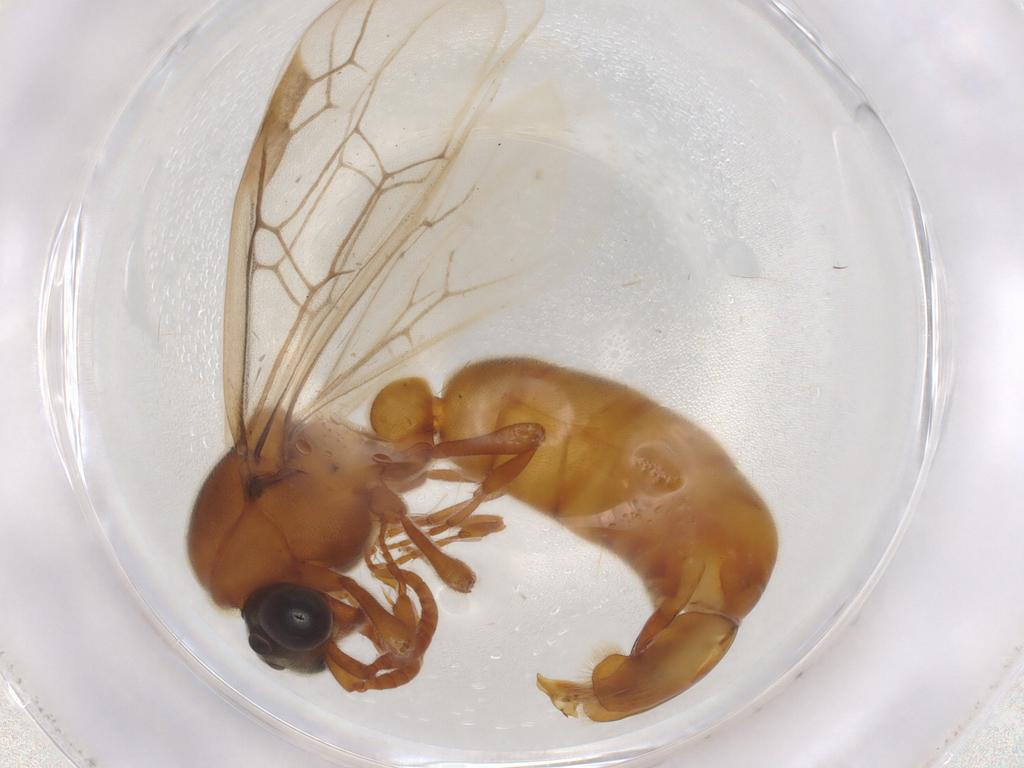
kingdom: Animalia
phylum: Arthropoda
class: Insecta
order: Hymenoptera
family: Formicidae
